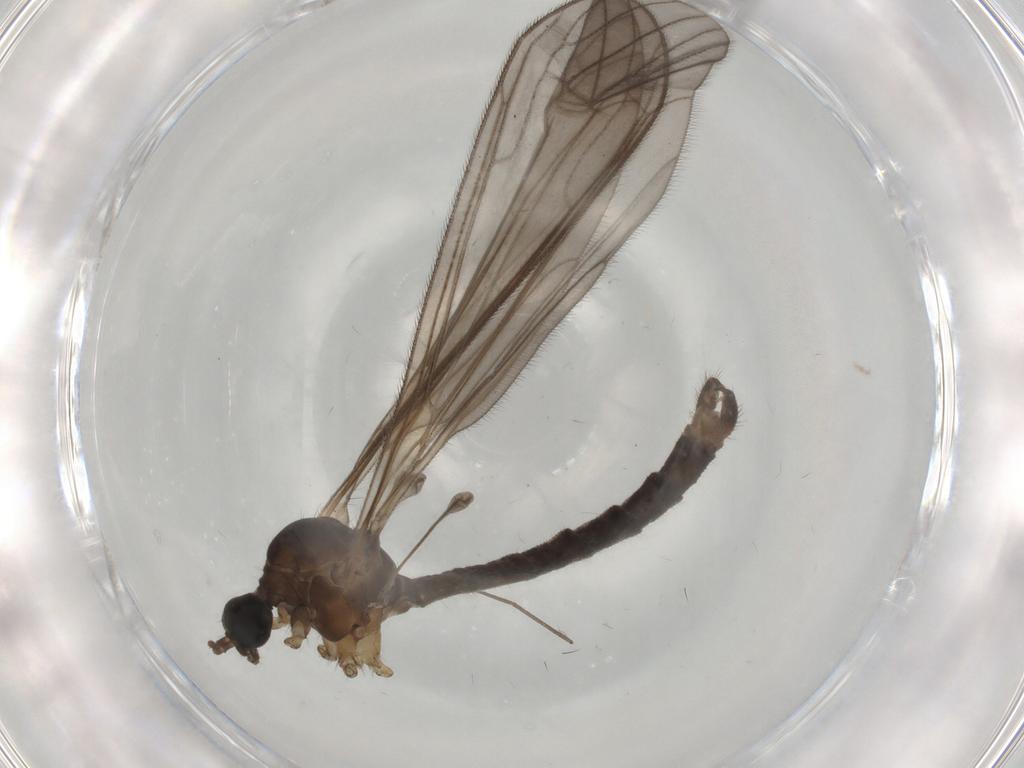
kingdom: Animalia
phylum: Arthropoda
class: Insecta
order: Diptera
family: Limoniidae
